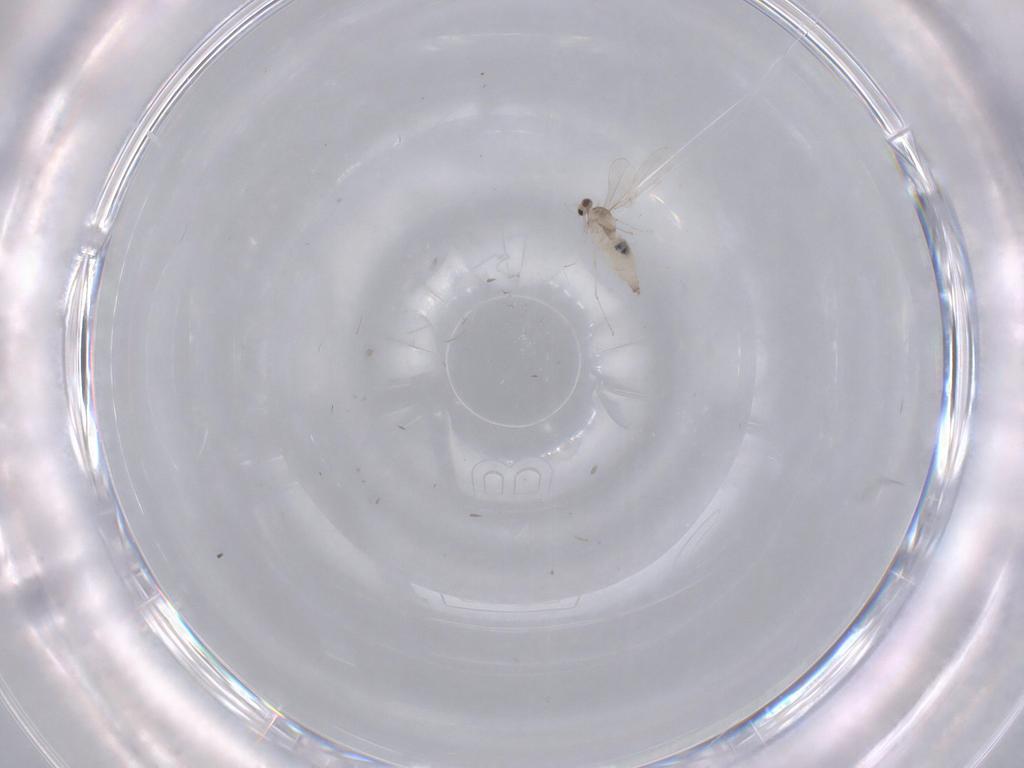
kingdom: Animalia
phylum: Arthropoda
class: Insecta
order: Diptera
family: Cecidomyiidae
